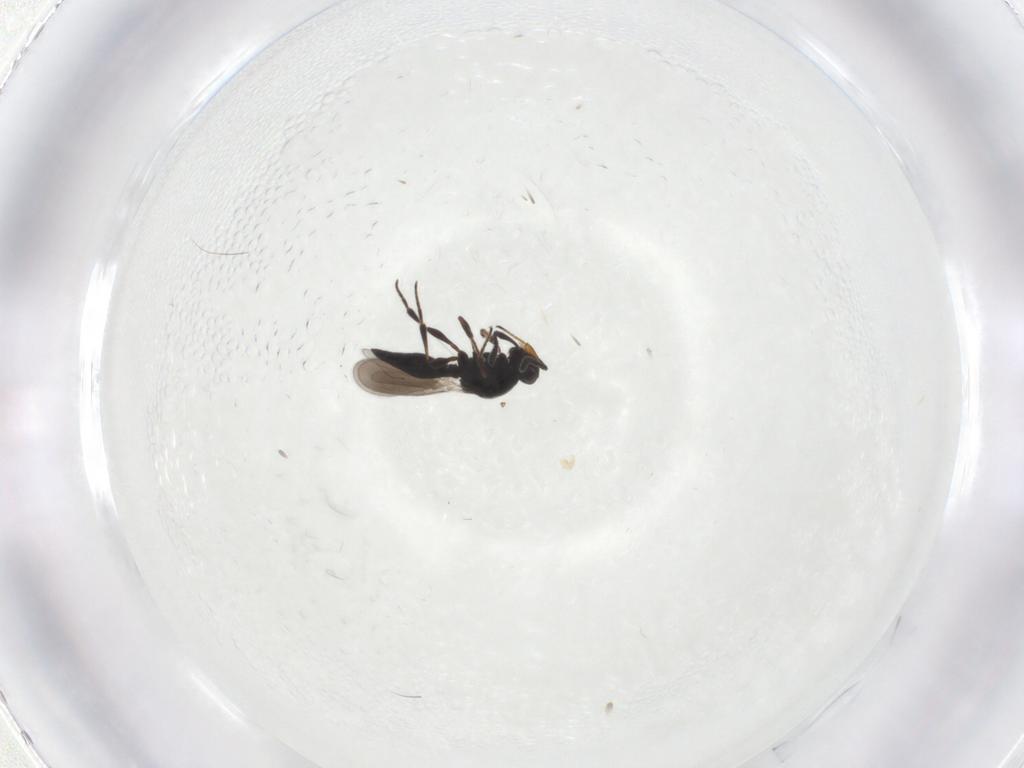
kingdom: Animalia
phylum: Arthropoda
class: Insecta
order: Hymenoptera
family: Platygastridae
